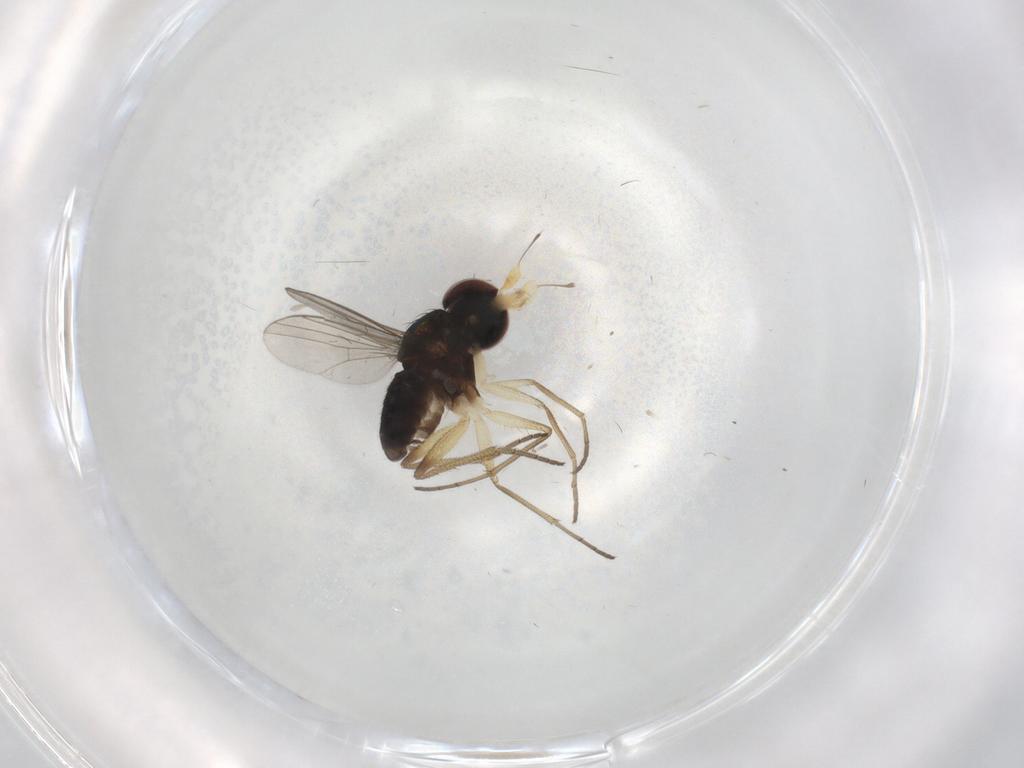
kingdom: Animalia
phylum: Arthropoda
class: Insecta
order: Diptera
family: Dolichopodidae
